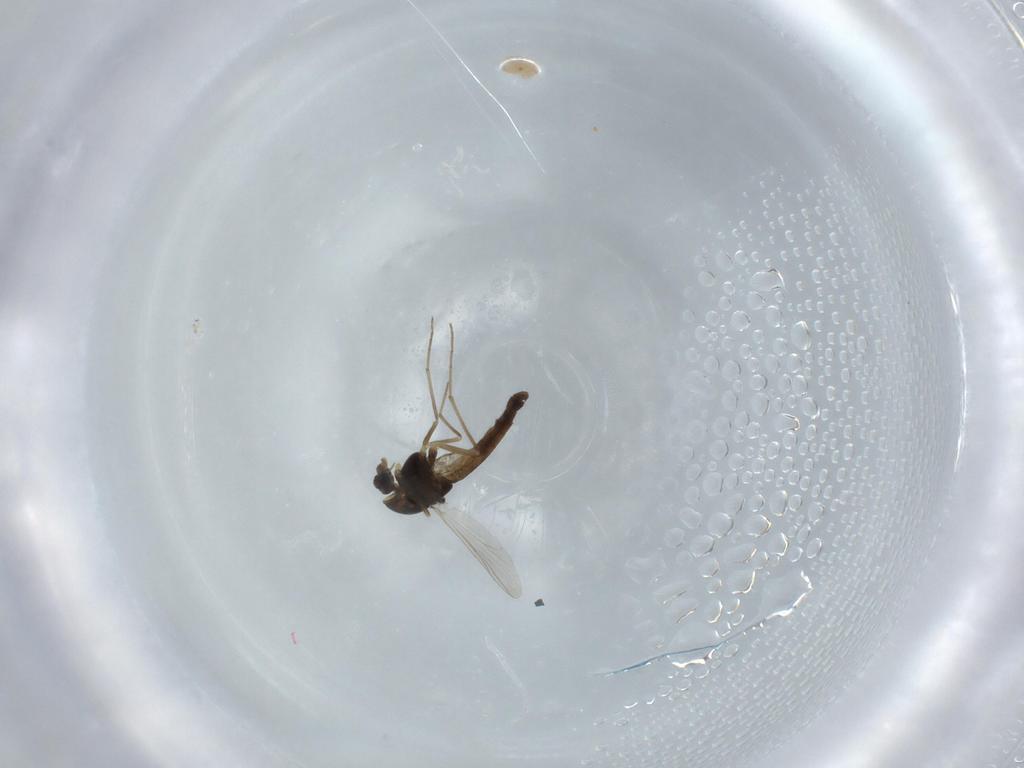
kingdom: Animalia
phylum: Arthropoda
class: Insecta
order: Diptera
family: Chironomidae
